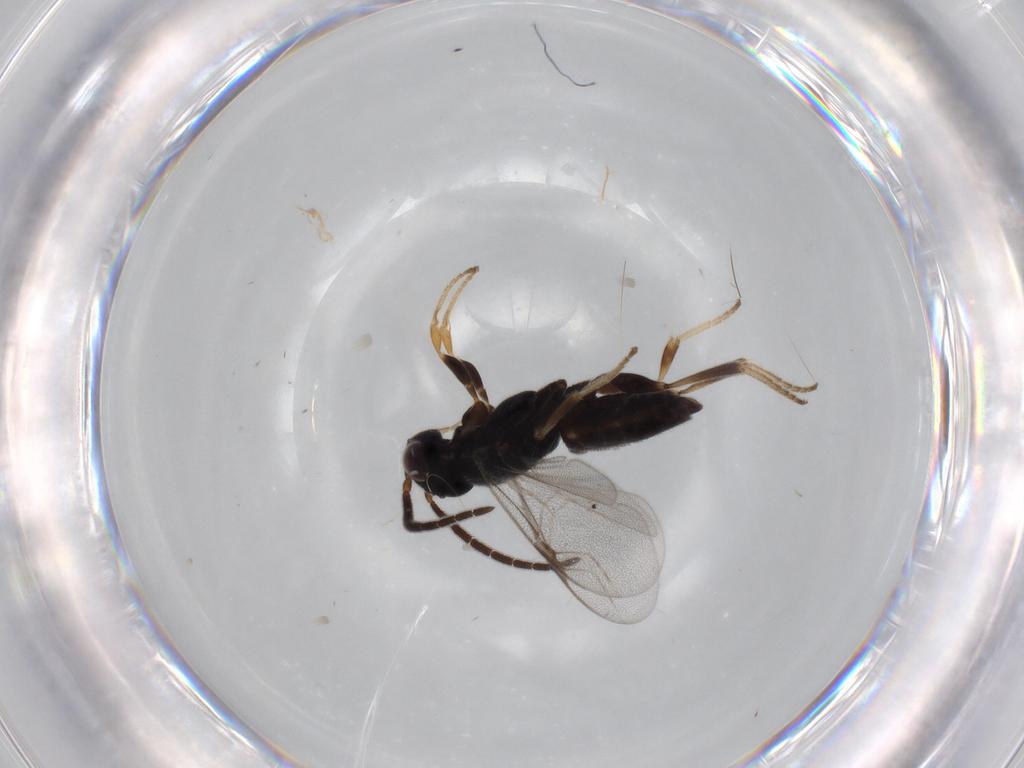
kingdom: Animalia
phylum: Arthropoda
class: Insecta
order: Hymenoptera
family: Dryinidae
